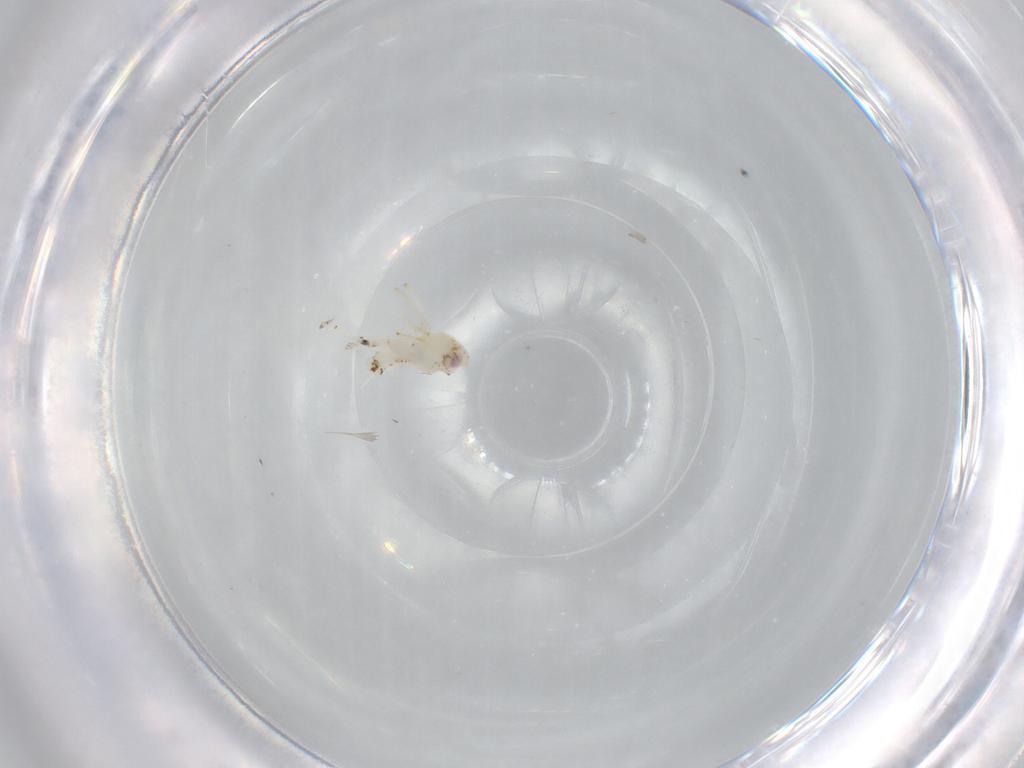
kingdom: Animalia
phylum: Arthropoda
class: Insecta
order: Hemiptera
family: Nogodinidae
